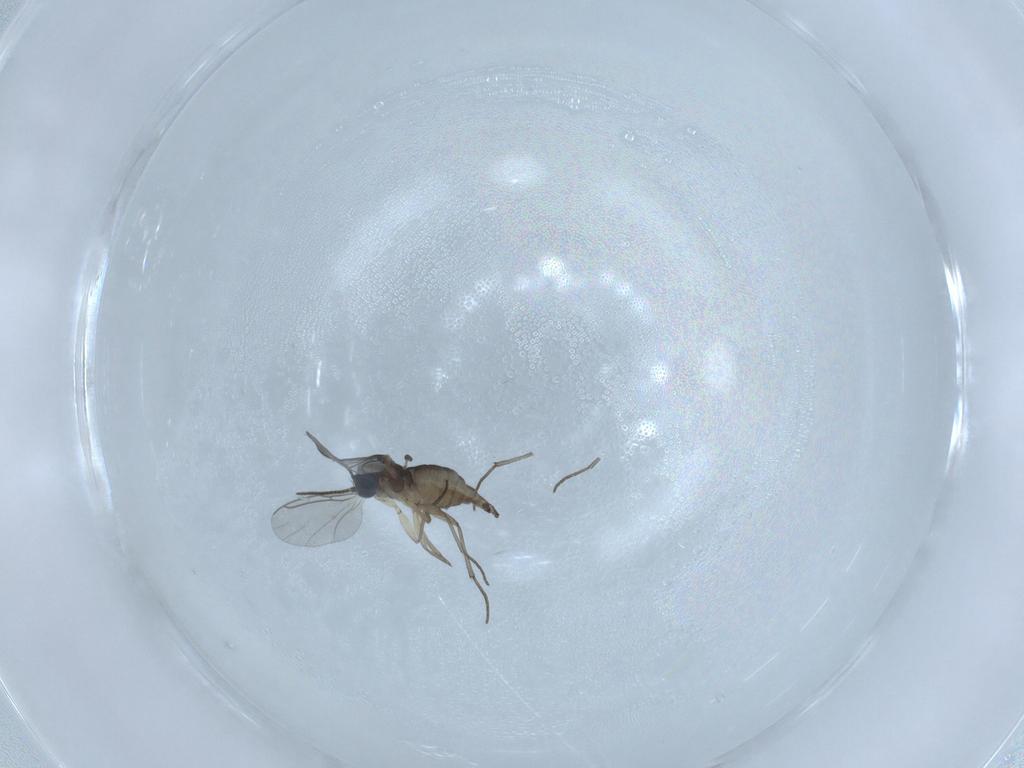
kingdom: Animalia
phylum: Arthropoda
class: Insecta
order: Diptera
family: Sciaridae
